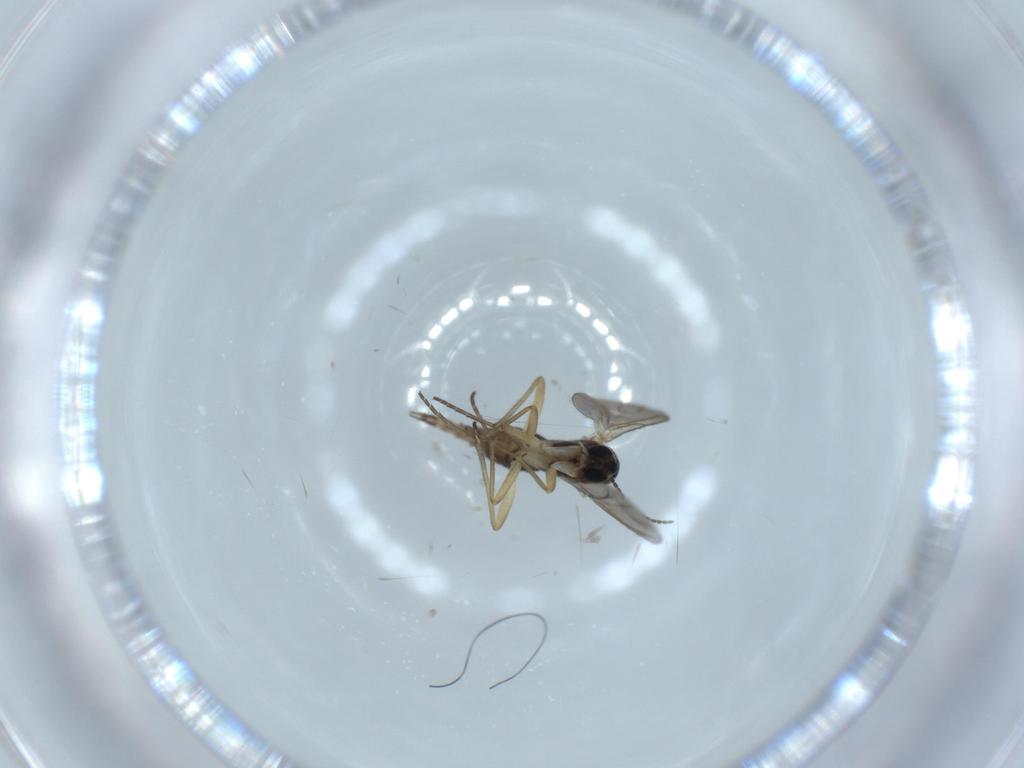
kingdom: Animalia
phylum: Arthropoda
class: Insecta
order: Diptera
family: Sciaridae
